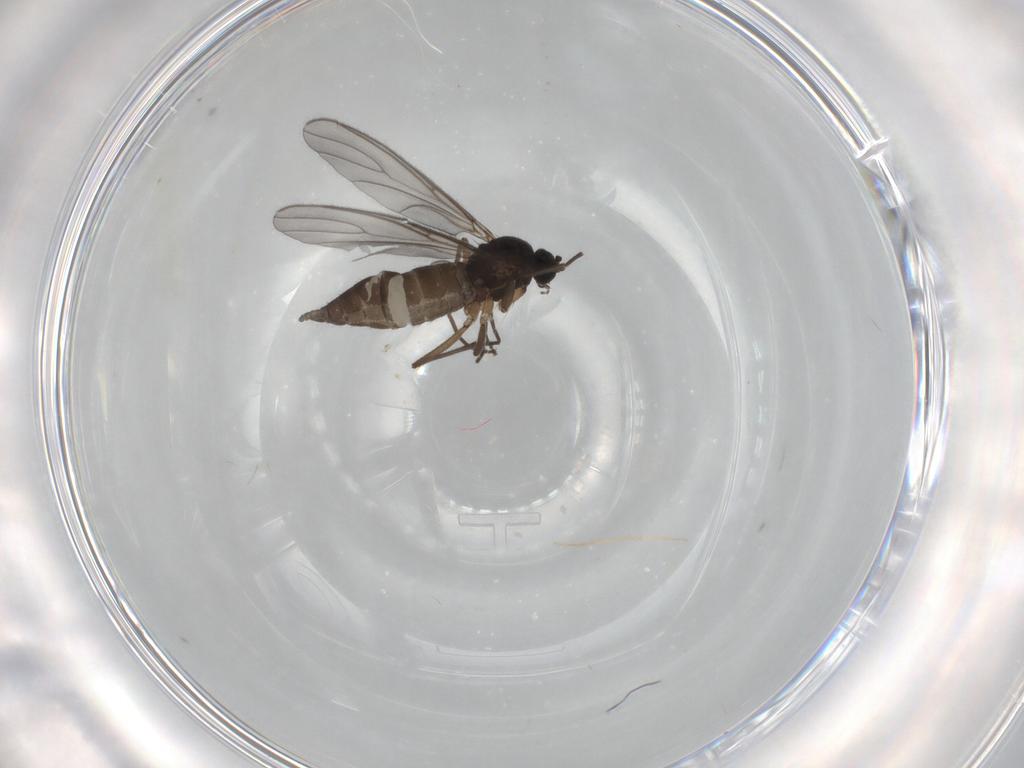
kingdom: Animalia
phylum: Arthropoda
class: Insecta
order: Diptera
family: Sciaridae
